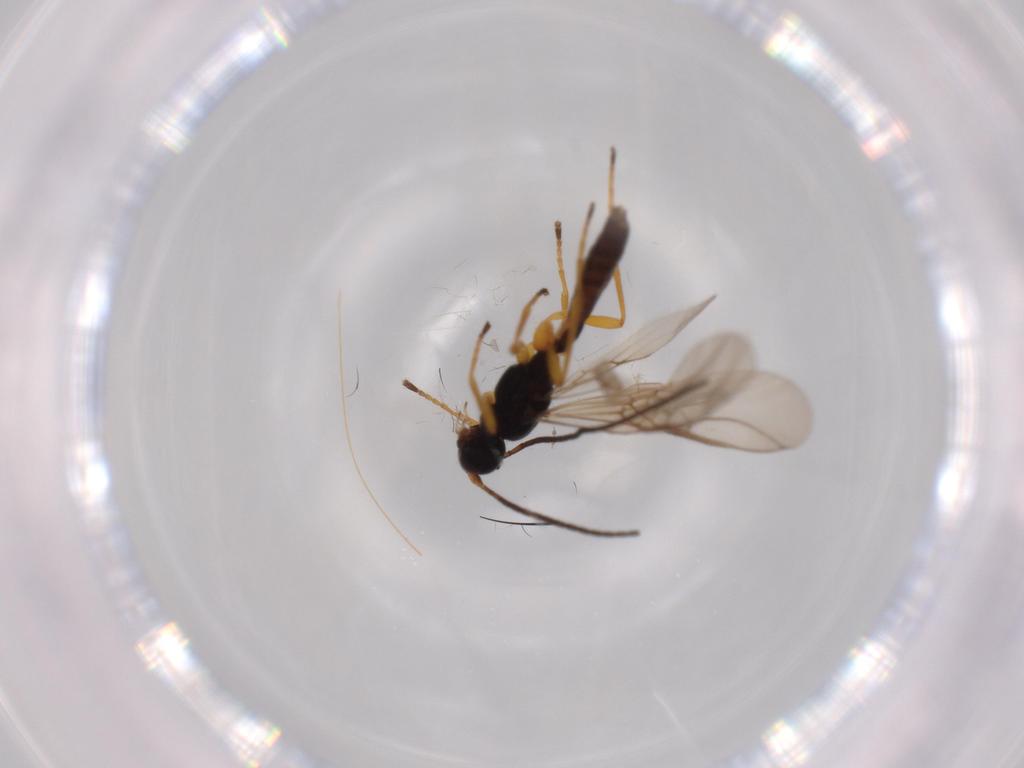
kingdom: Animalia
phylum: Arthropoda
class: Insecta
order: Hymenoptera
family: Braconidae
